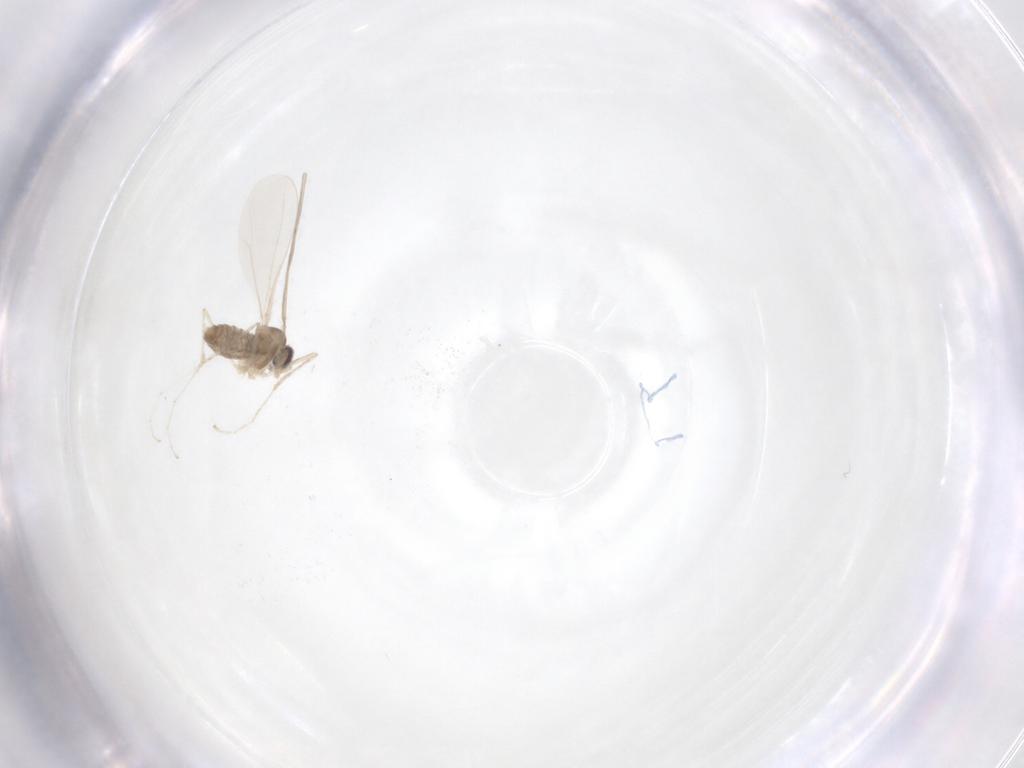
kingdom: Animalia
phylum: Arthropoda
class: Insecta
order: Diptera
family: Cecidomyiidae
